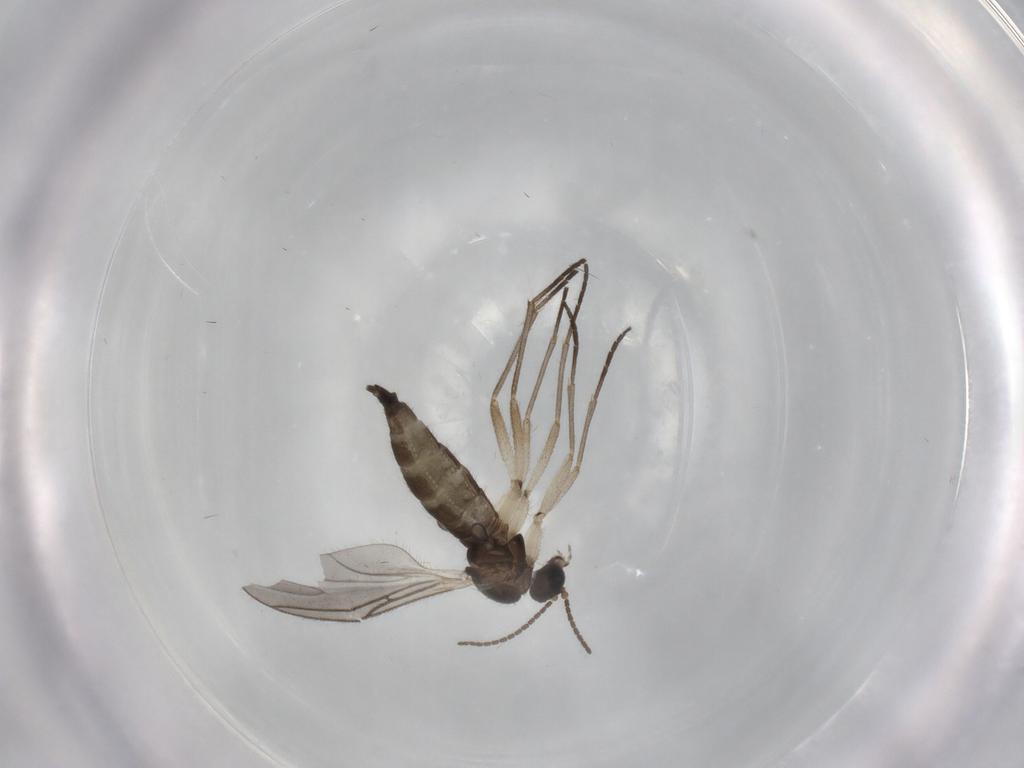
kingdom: Animalia
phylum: Arthropoda
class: Insecta
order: Diptera
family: Sciaridae
